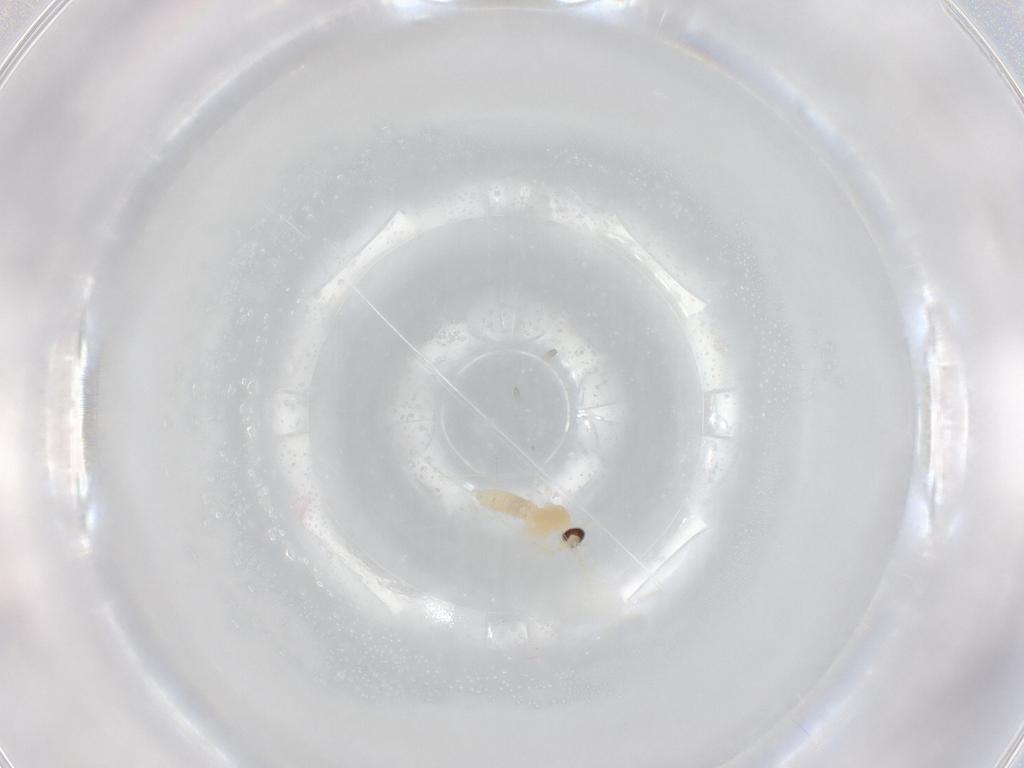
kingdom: Animalia
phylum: Arthropoda
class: Insecta
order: Diptera
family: Cecidomyiidae
